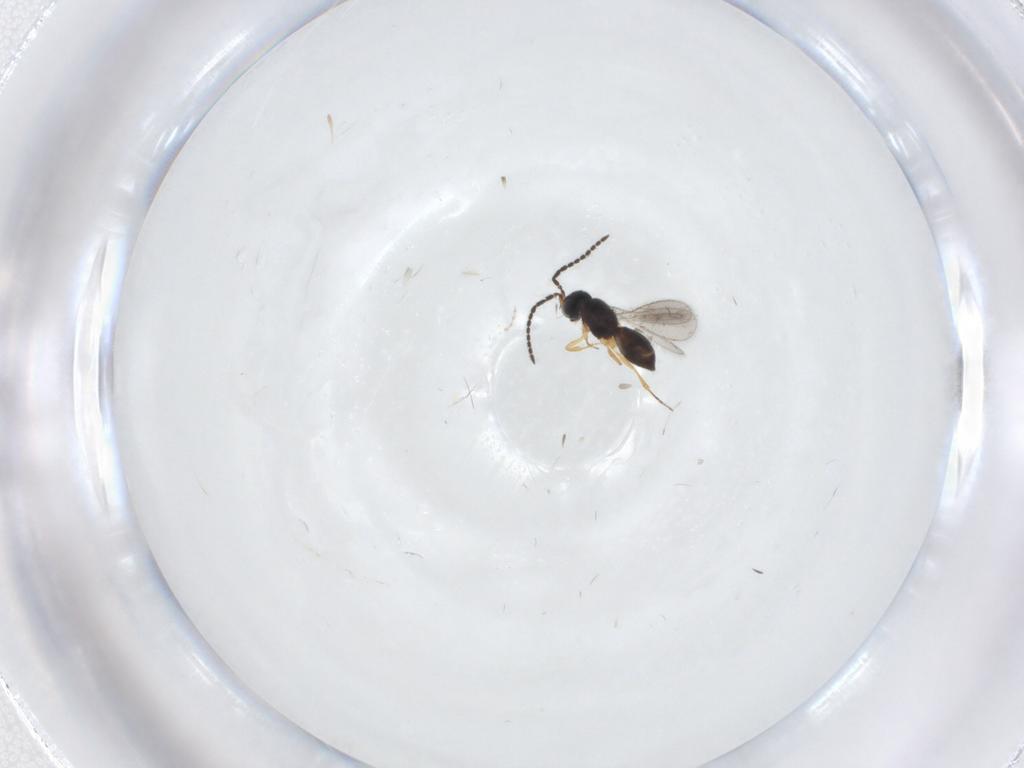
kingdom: Animalia
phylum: Arthropoda
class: Insecta
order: Hymenoptera
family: Scelionidae
